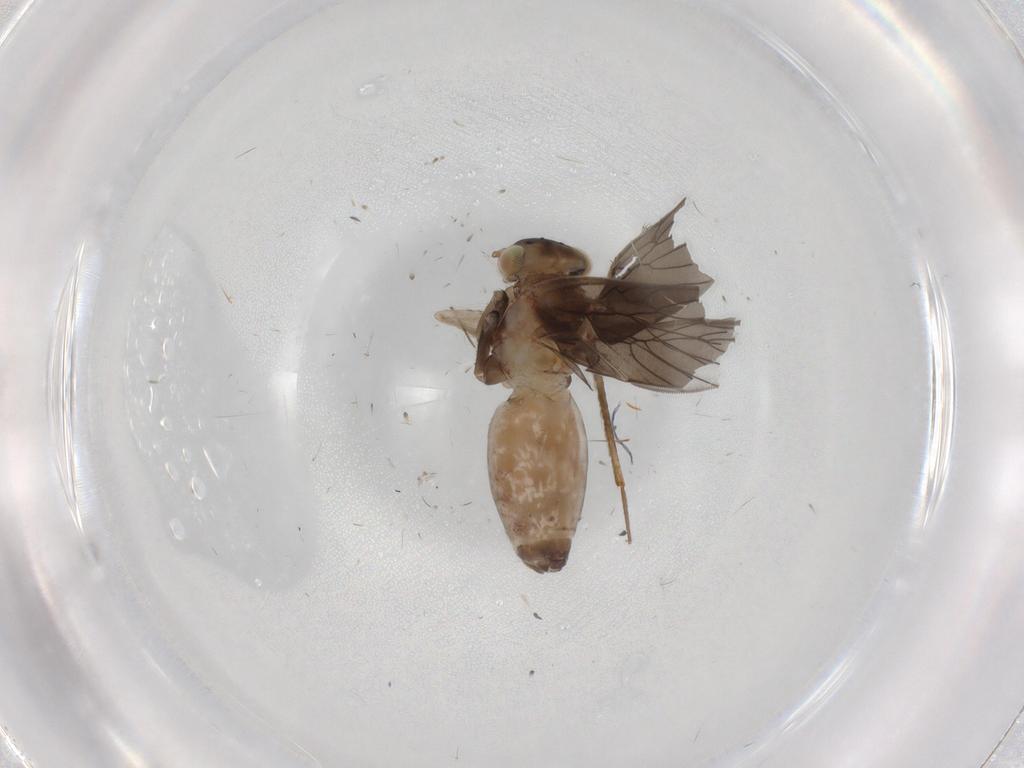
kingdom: Animalia
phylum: Arthropoda
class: Insecta
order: Psocodea
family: Lepidopsocidae
